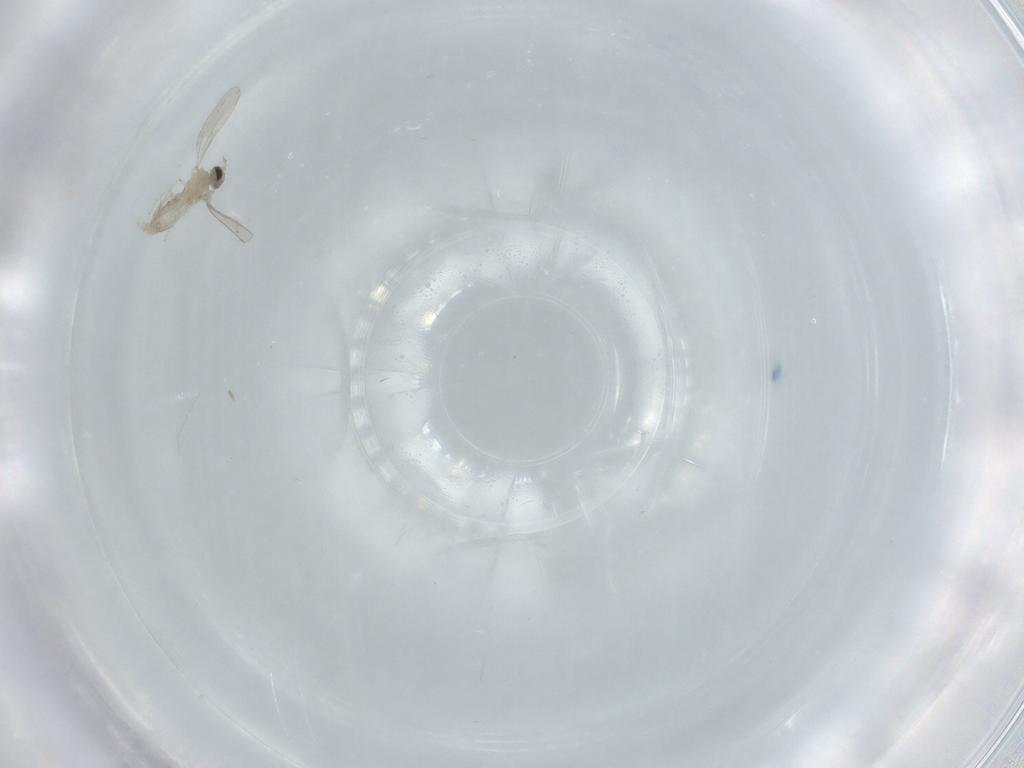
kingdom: Animalia
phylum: Arthropoda
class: Insecta
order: Diptera
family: Cecidomyiidae
